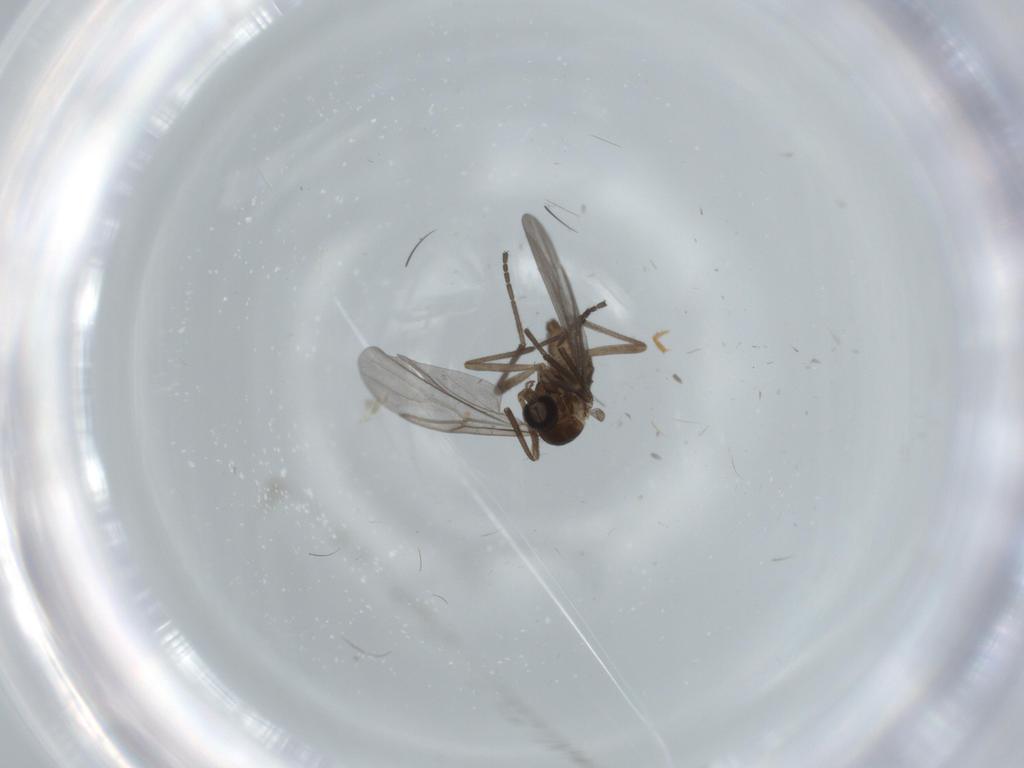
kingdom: Animalia
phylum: Arthropoda
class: Insecta
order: Diptera
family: Cecidomyiidae
